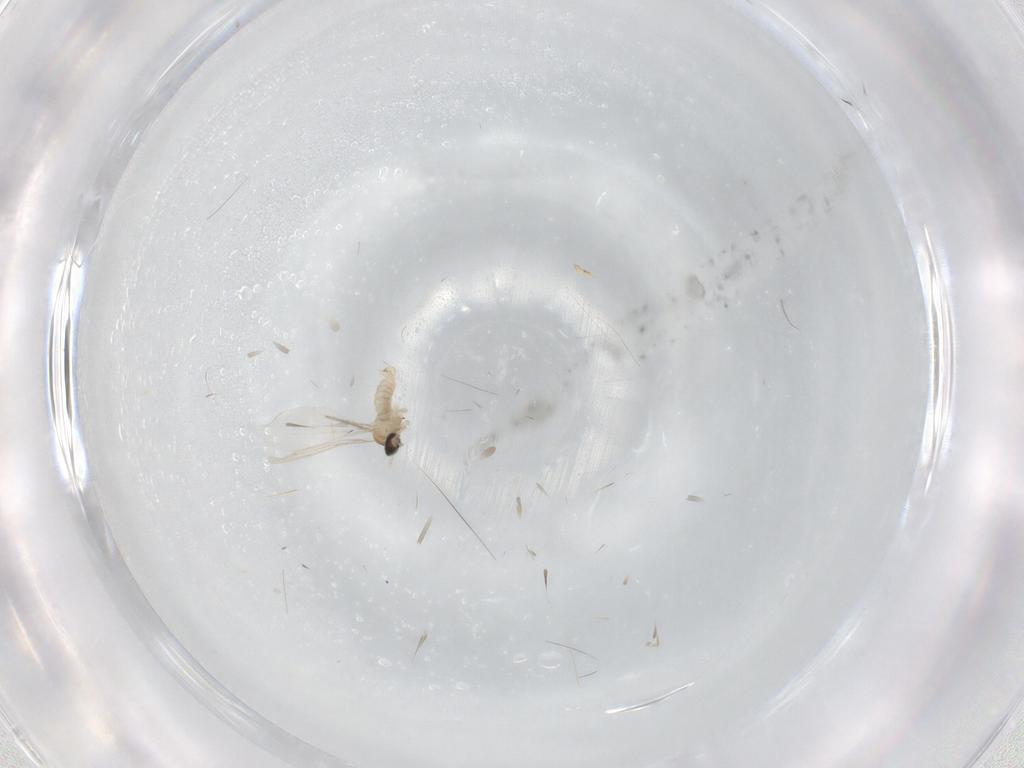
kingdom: Animalia
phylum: Arthropoda
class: Insecta
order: Diptera
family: Chironomidae
